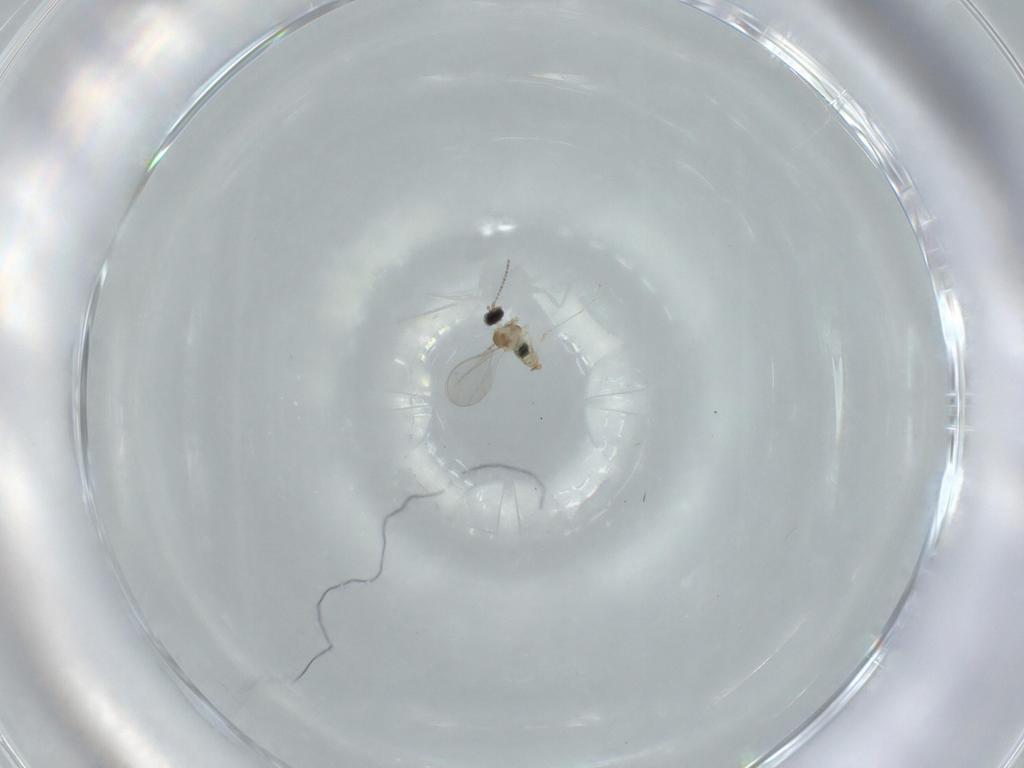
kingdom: Animalia
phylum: Arthropoda
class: Insecta
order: Diptera
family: Cecidomyiidae
